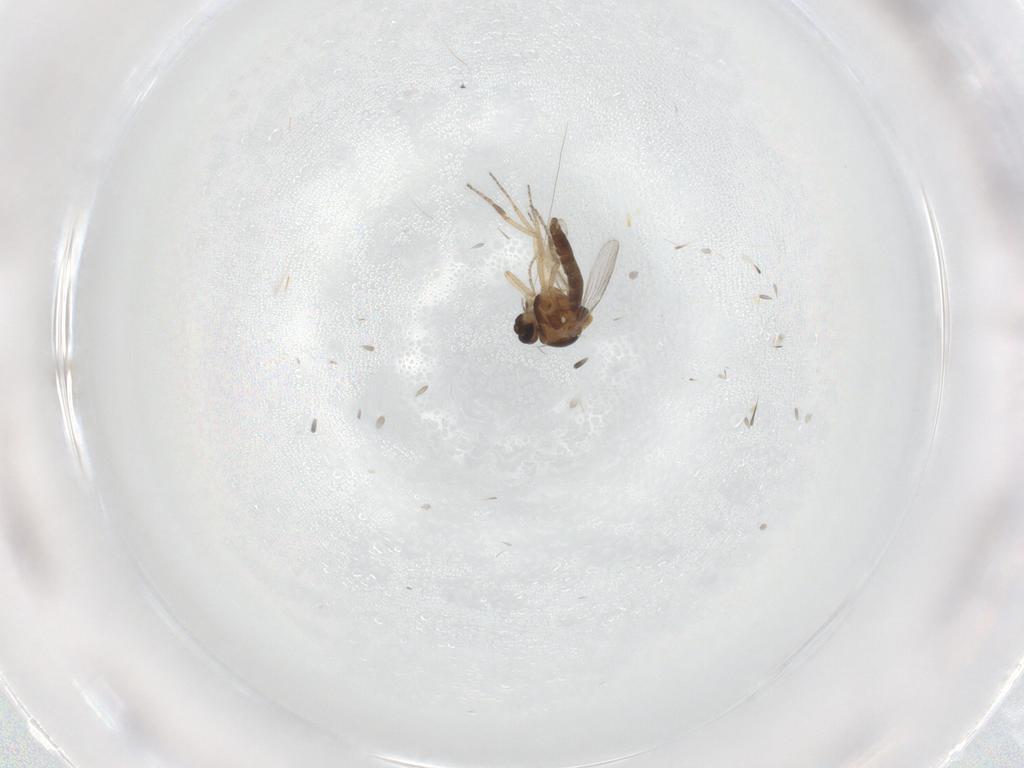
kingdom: Animalia
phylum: Arthropoda
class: Insecta
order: Diptera
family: Ceratopogonidae
